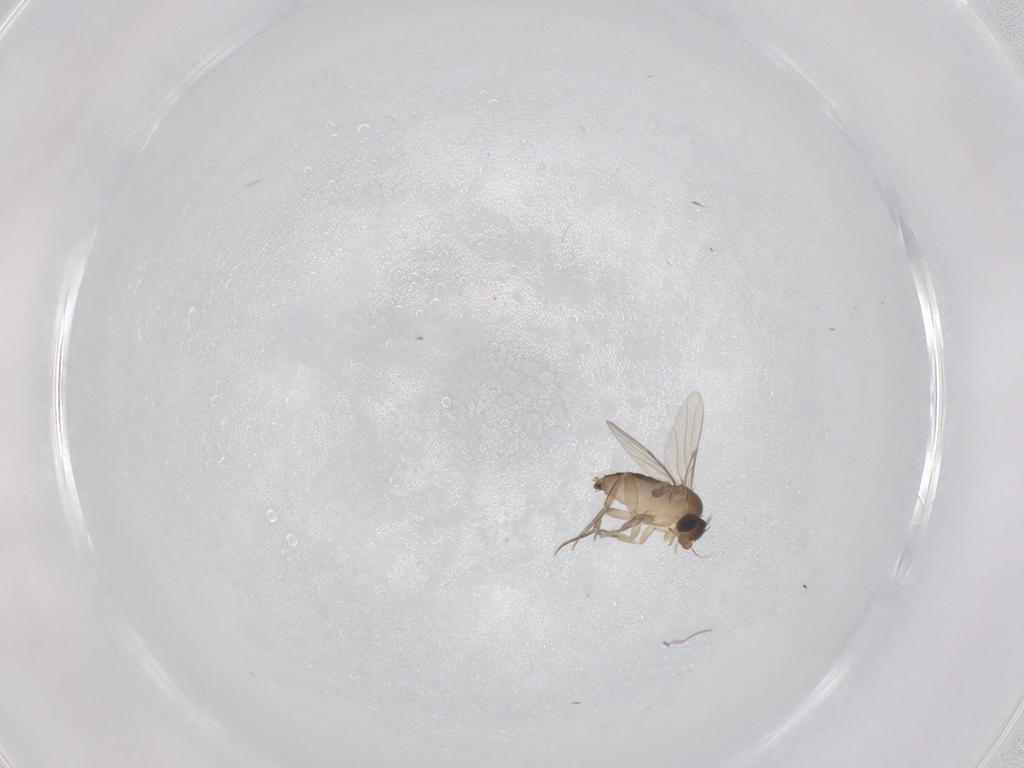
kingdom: Animalia
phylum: Arthropoda
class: Insecta
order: Diptera
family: Phoridae
